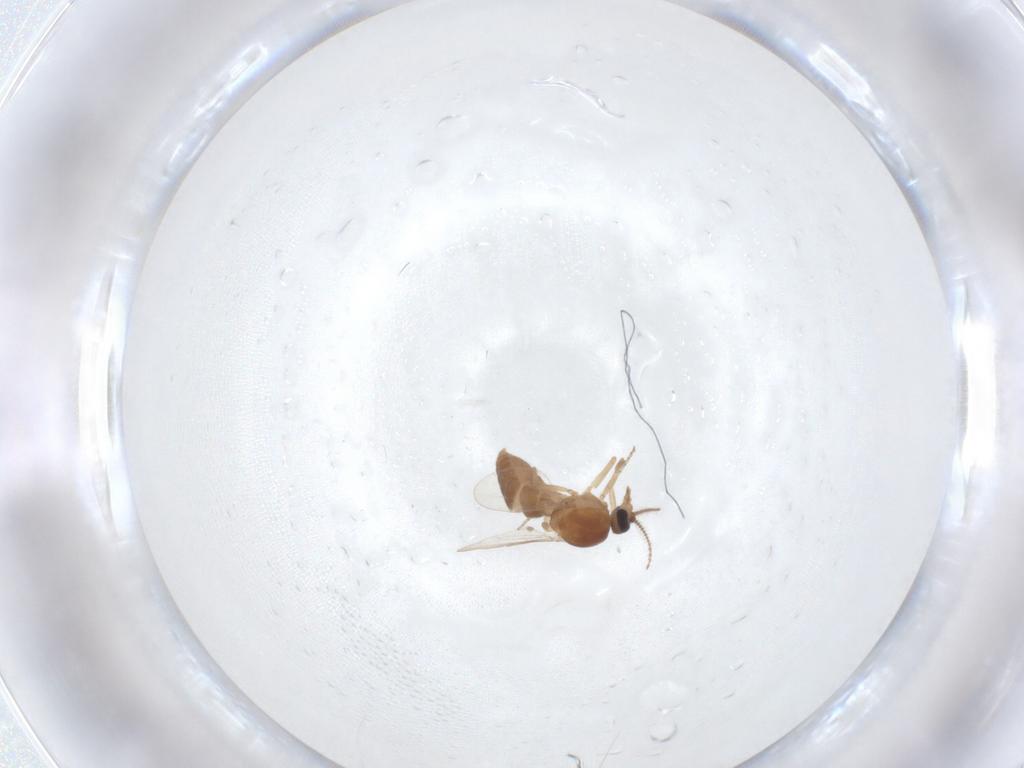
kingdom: Animalia
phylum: Arthropoda
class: Insecta
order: Diptera
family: Ceratopogonidae
